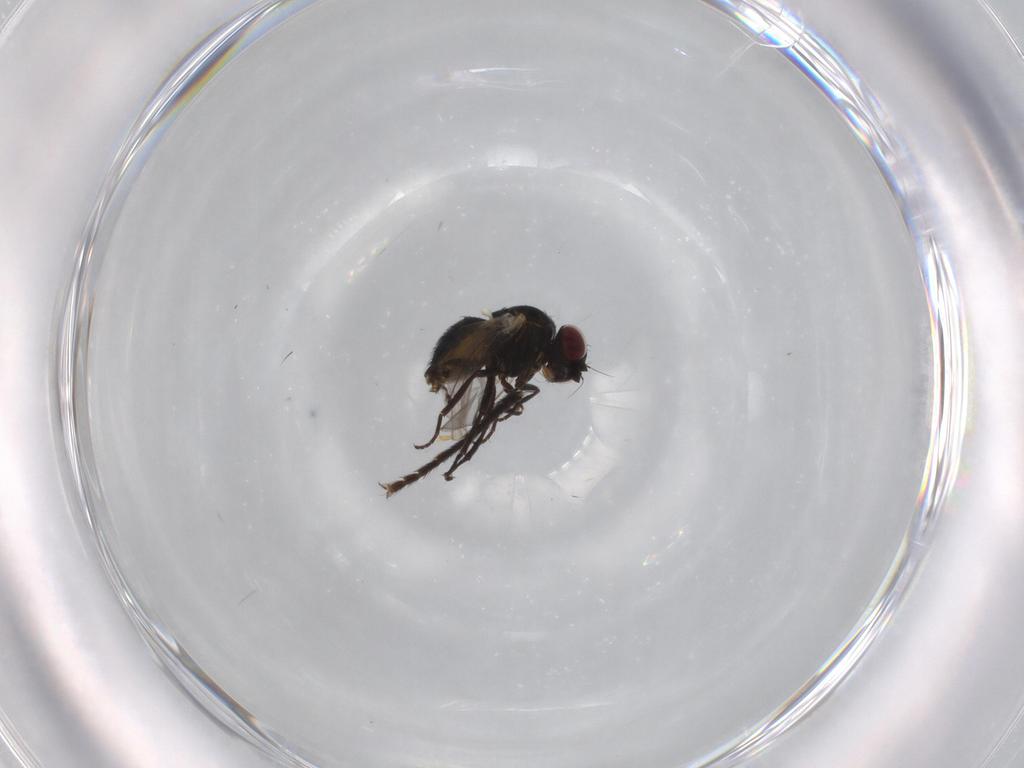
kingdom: Animalia
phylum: Arthropoda
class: Insecta
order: Diptera
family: Anthomyiidae
